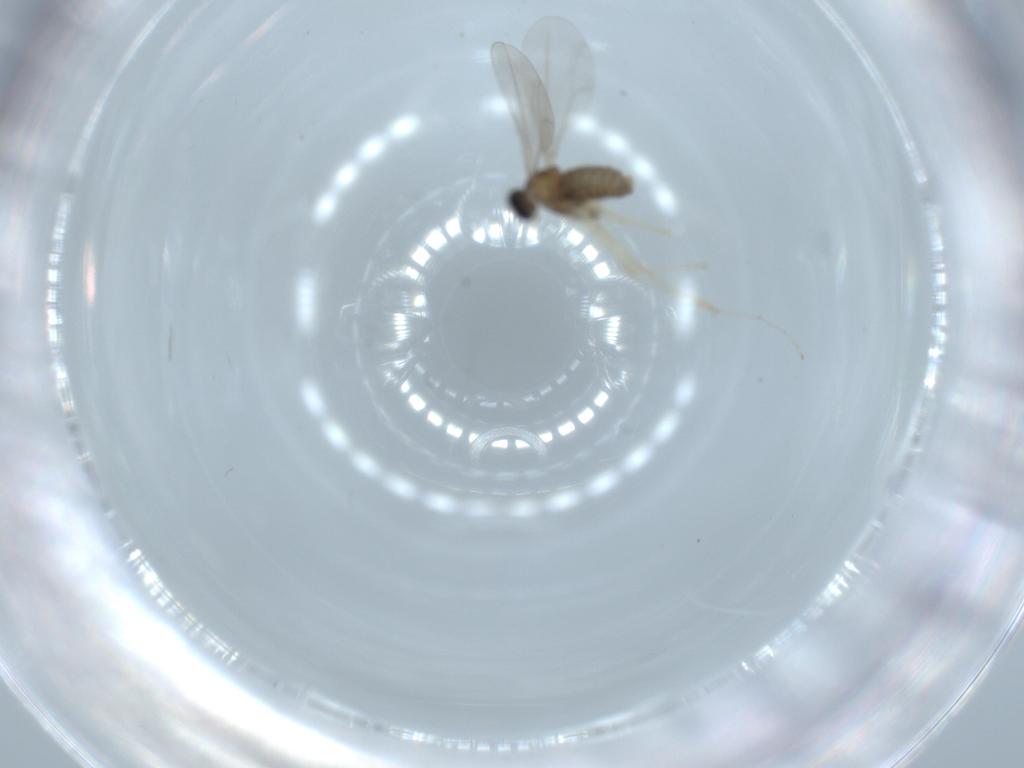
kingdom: Animalia
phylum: Arthropoda
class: Insecta
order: Diptera
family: Cecidomyiidae
